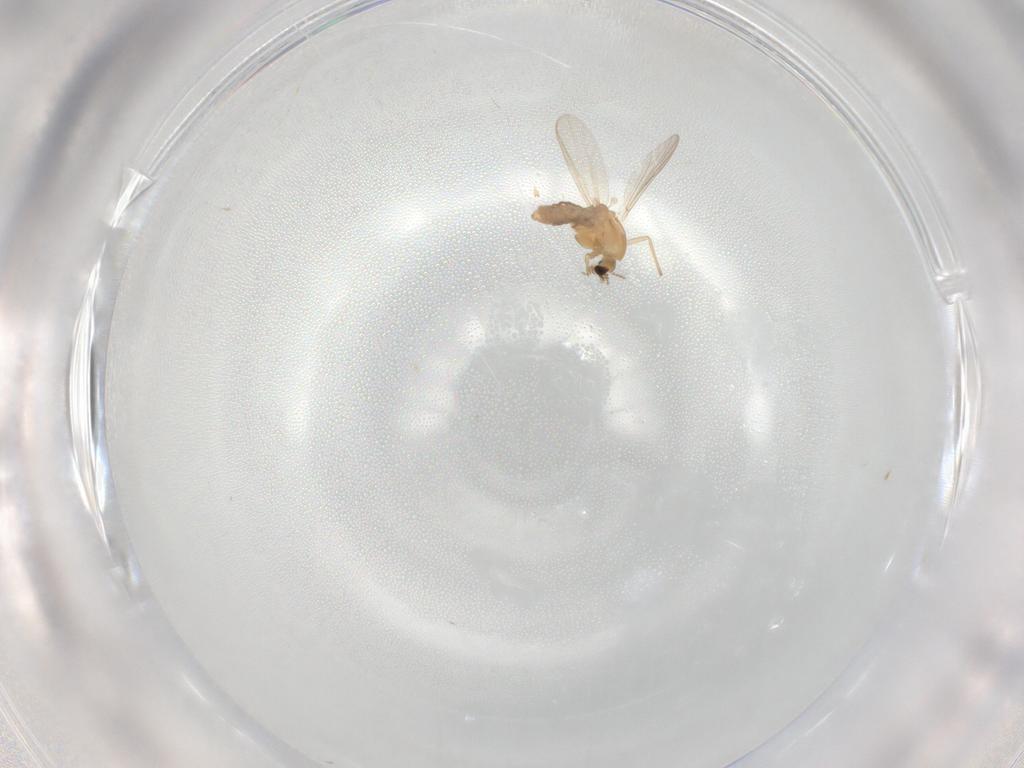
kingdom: Animalia
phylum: Arthropoda
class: Insecta
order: Diptera
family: Chironomidae
